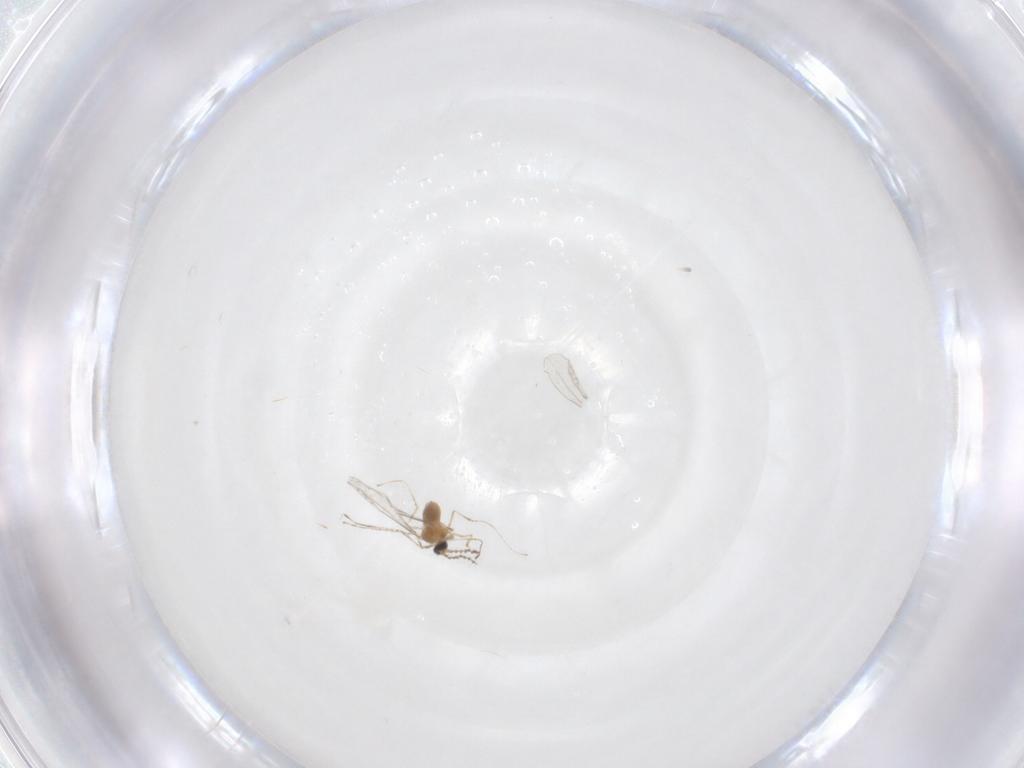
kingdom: Animalia
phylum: Arthropoda
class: Insecta
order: Diptera
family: Cecidomyiidae
